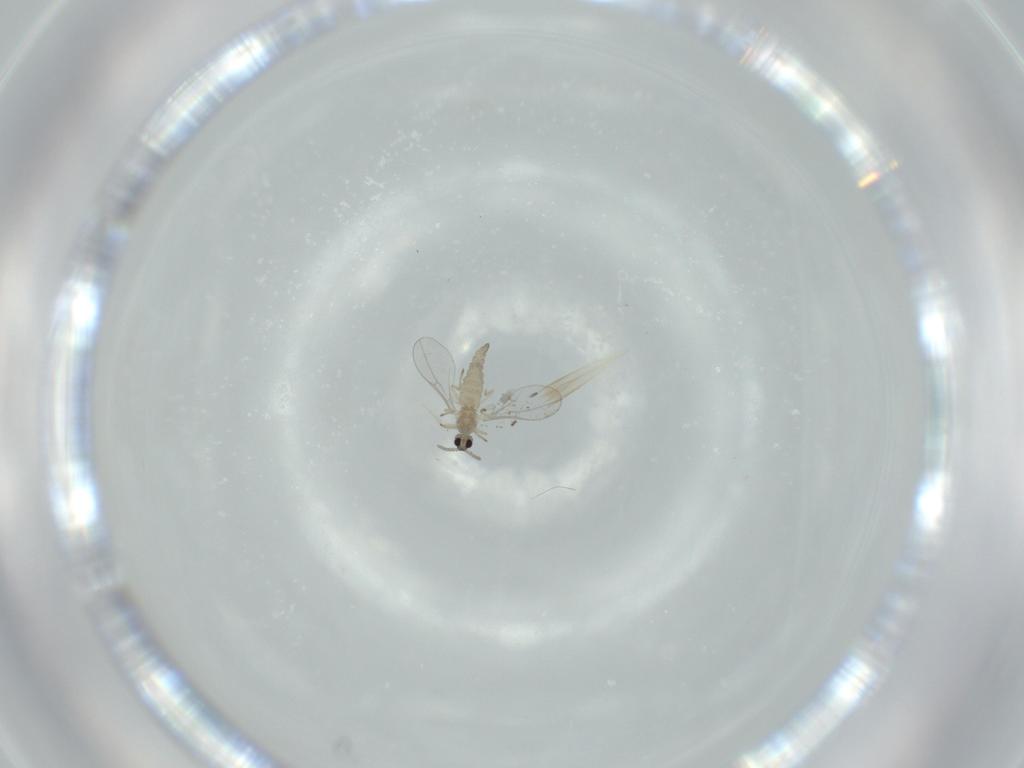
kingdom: Animalia
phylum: Arthropoda
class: Insecta
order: Diptera
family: Cecidomyiidae
